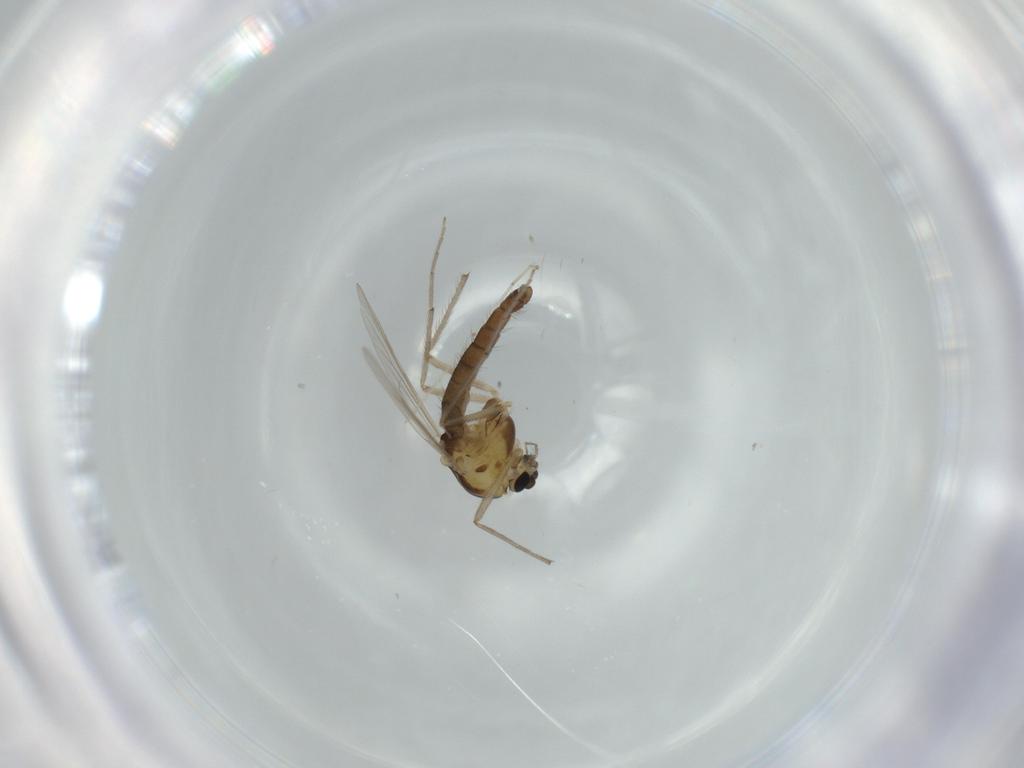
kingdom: Animalia
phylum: Arthropoda
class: Insecta
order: Diptera
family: Chironomidae
